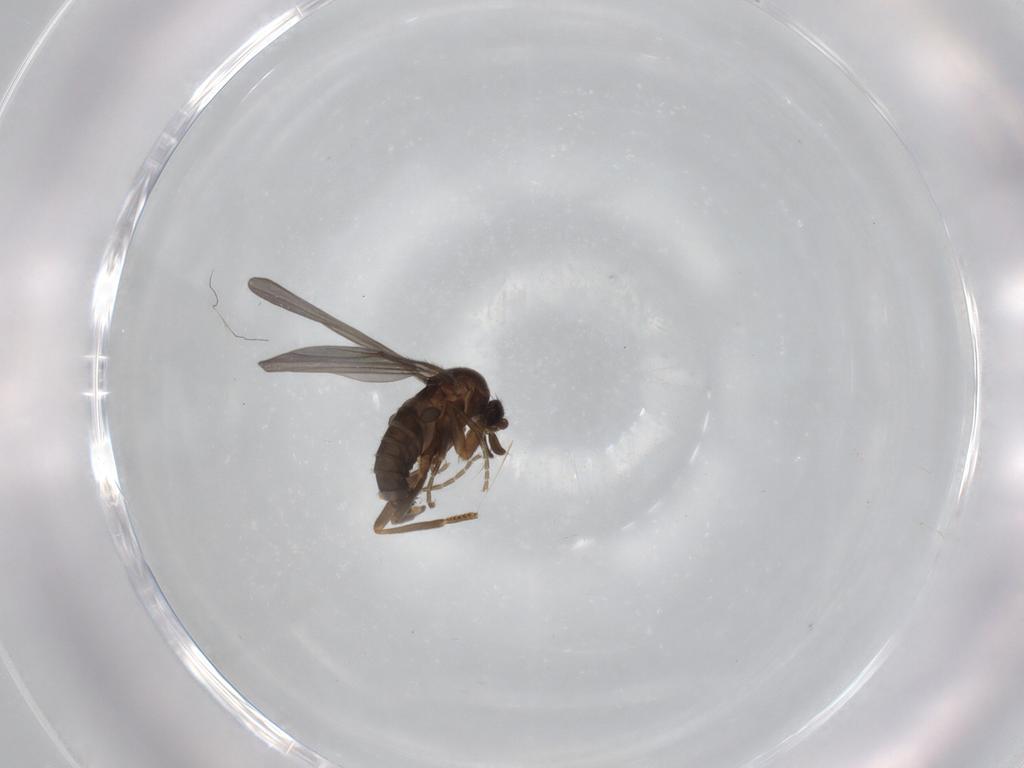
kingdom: Animalia
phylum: Arthropoda
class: Insecta
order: Diptera
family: Phoridae
